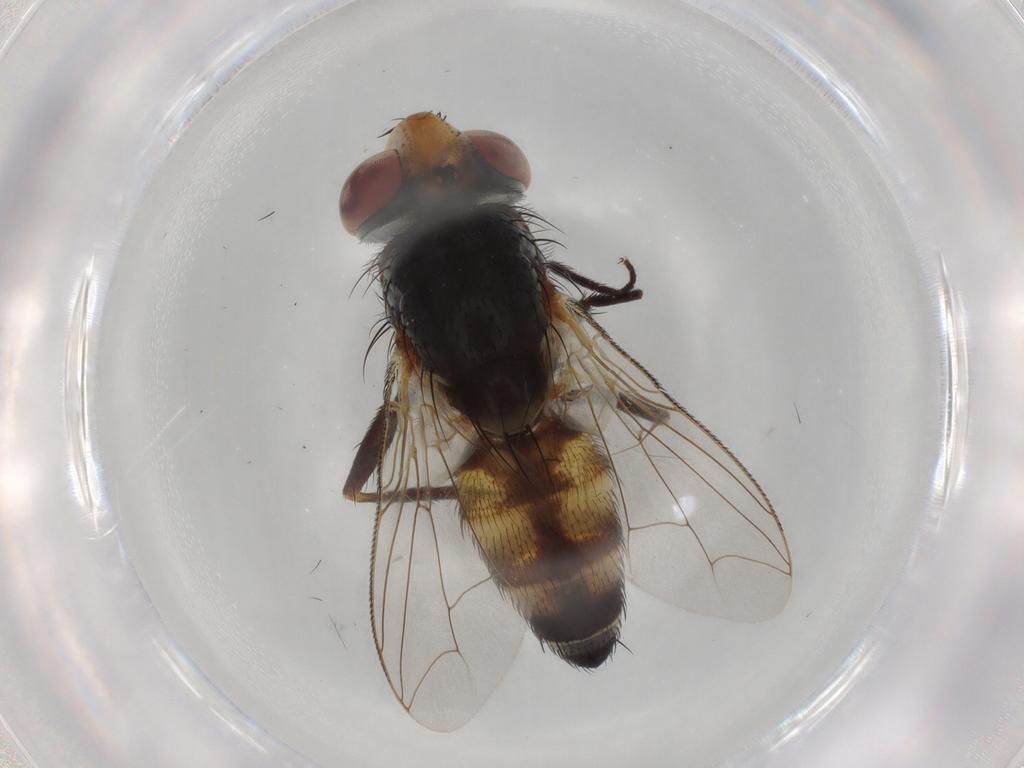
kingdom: Animalia
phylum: Arthropoda
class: Insecta
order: Diptera
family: Sarcophagidae
